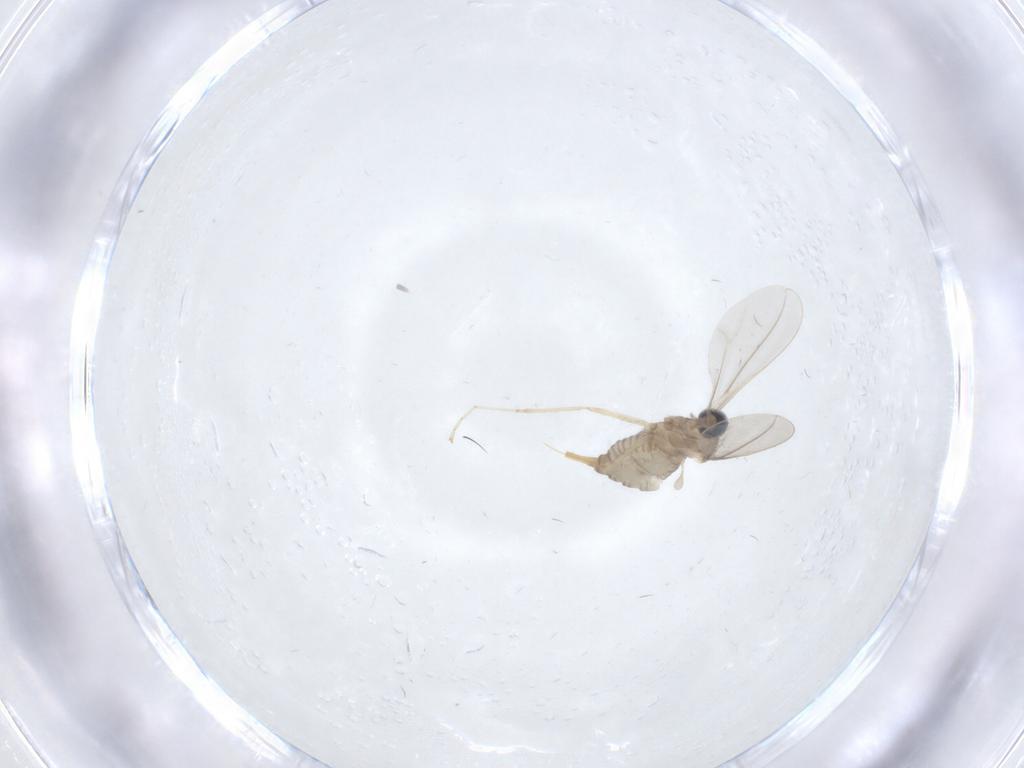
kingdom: Animalia
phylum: Arthropoda
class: Insecta
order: Diptera
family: Cecidomyiidae
